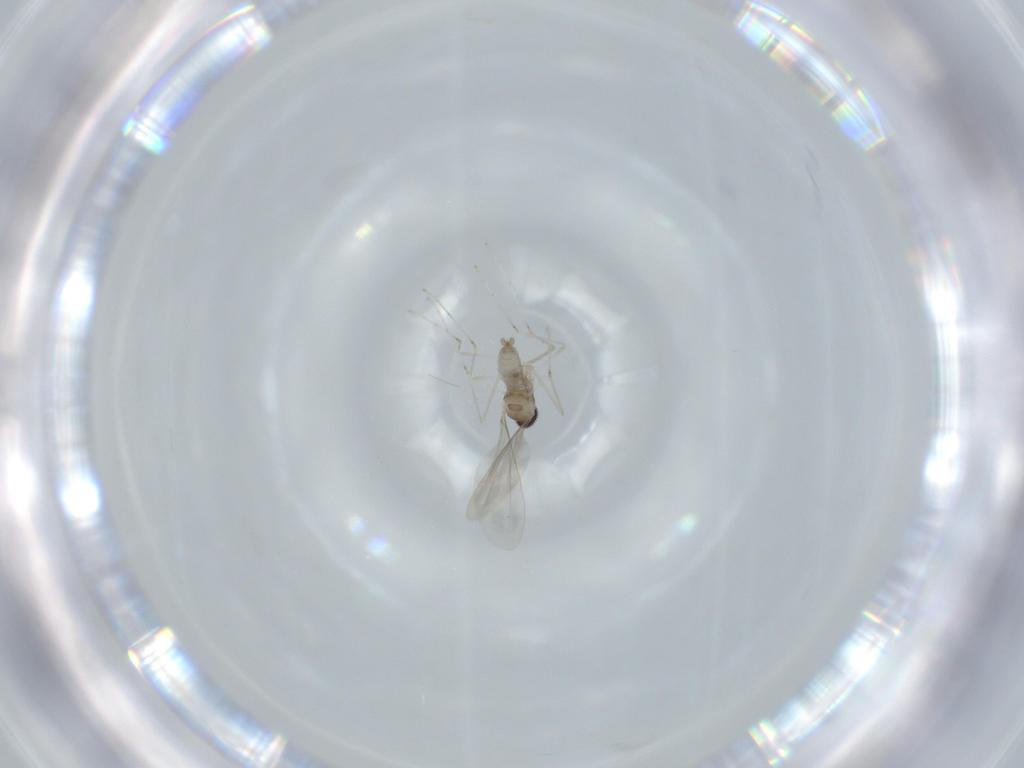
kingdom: Animalia
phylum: Arthropoda
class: Insecta
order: Diptera
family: Cecidomyiidae
